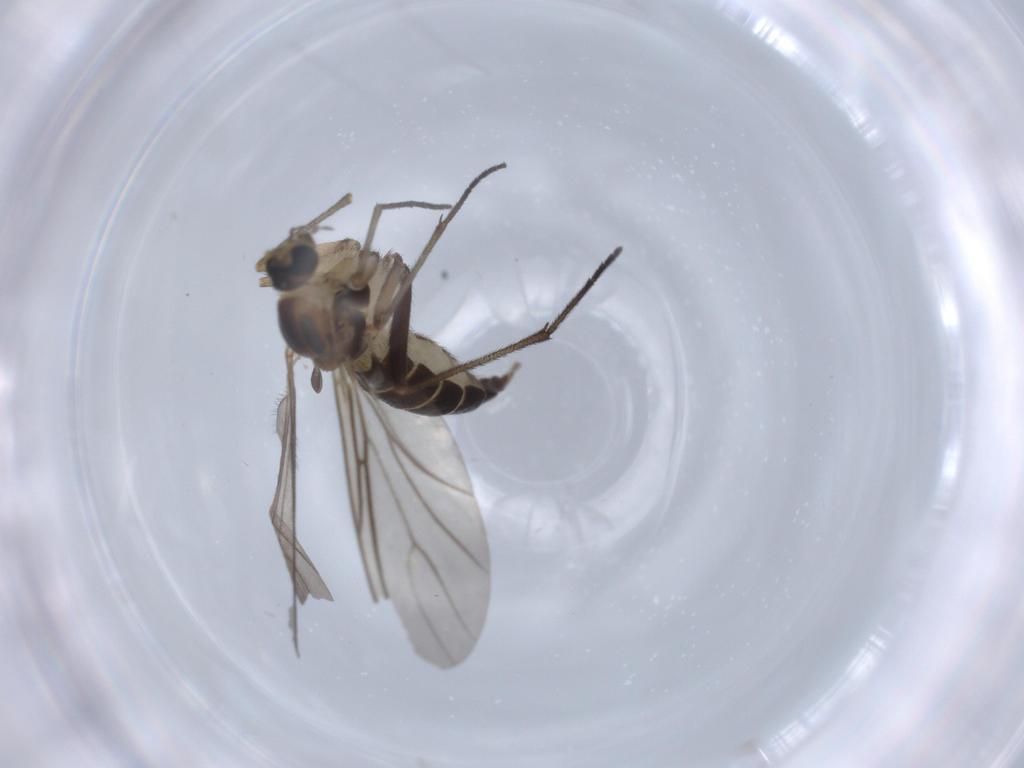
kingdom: Animalia
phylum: Arthropoda
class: Insecta
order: Diptera
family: Sciaridae
